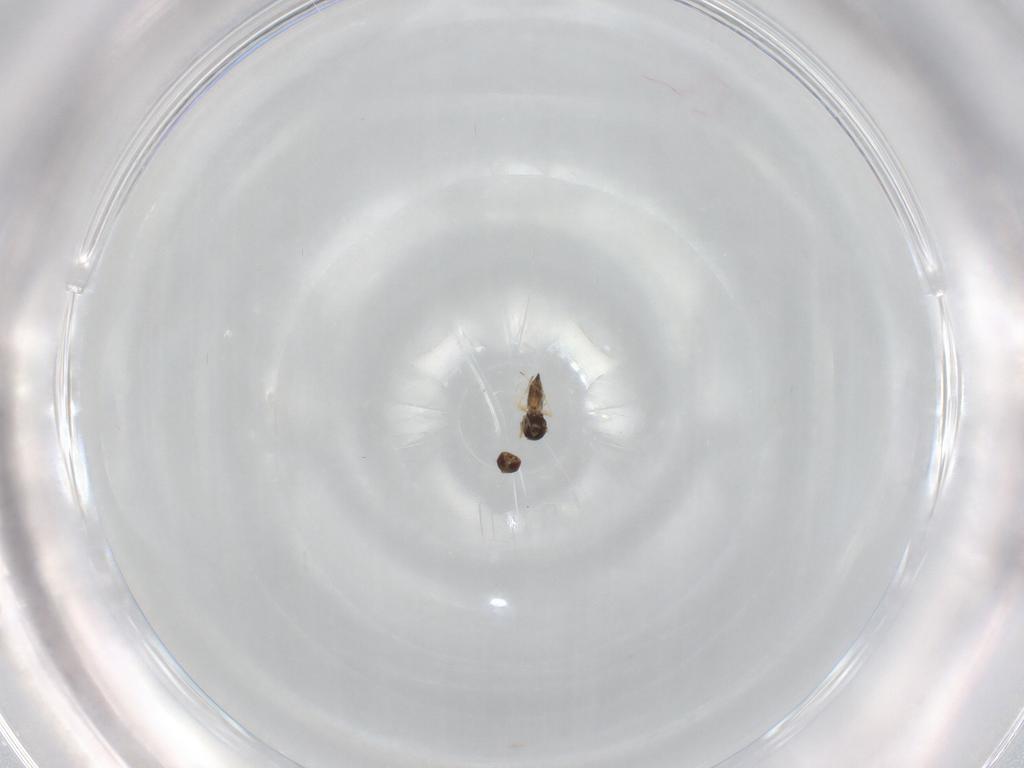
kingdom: Animalia
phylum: Arthropoda
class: Insecta
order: Hymenoptera
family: Eulophidae
